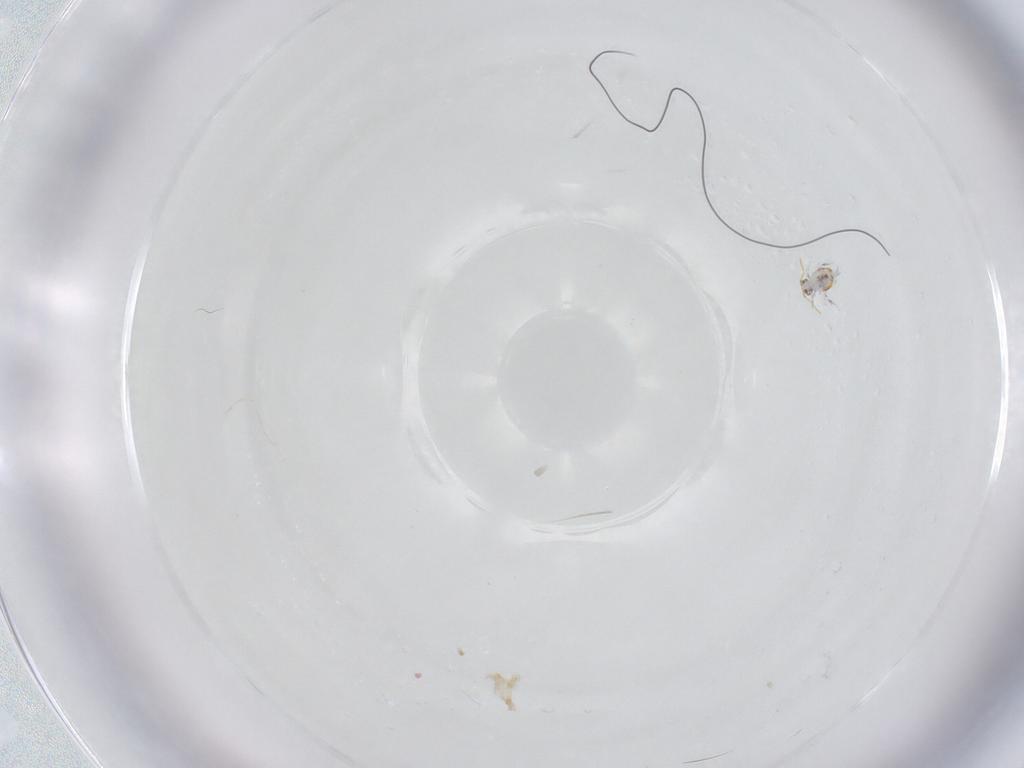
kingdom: Animalia
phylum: Arthropoda
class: Collembola
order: Symphypleona
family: Katiannidae
